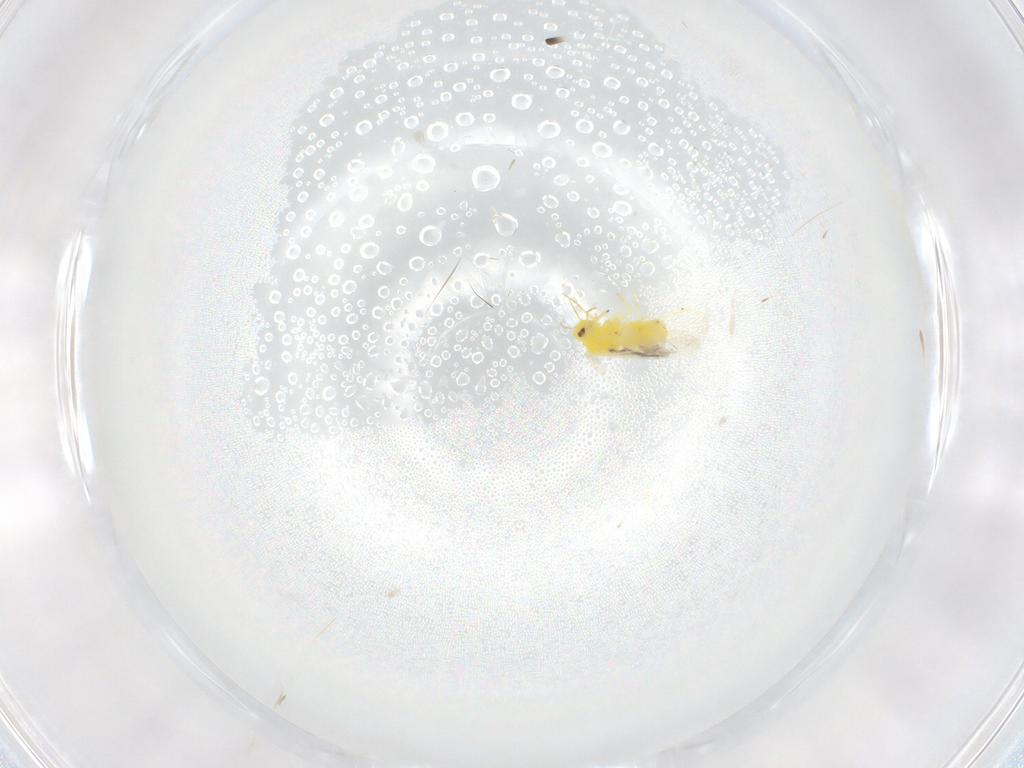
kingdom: Animalia
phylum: Arthropoda
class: Insecta
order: Hemiptera
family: Aleyrodidae
